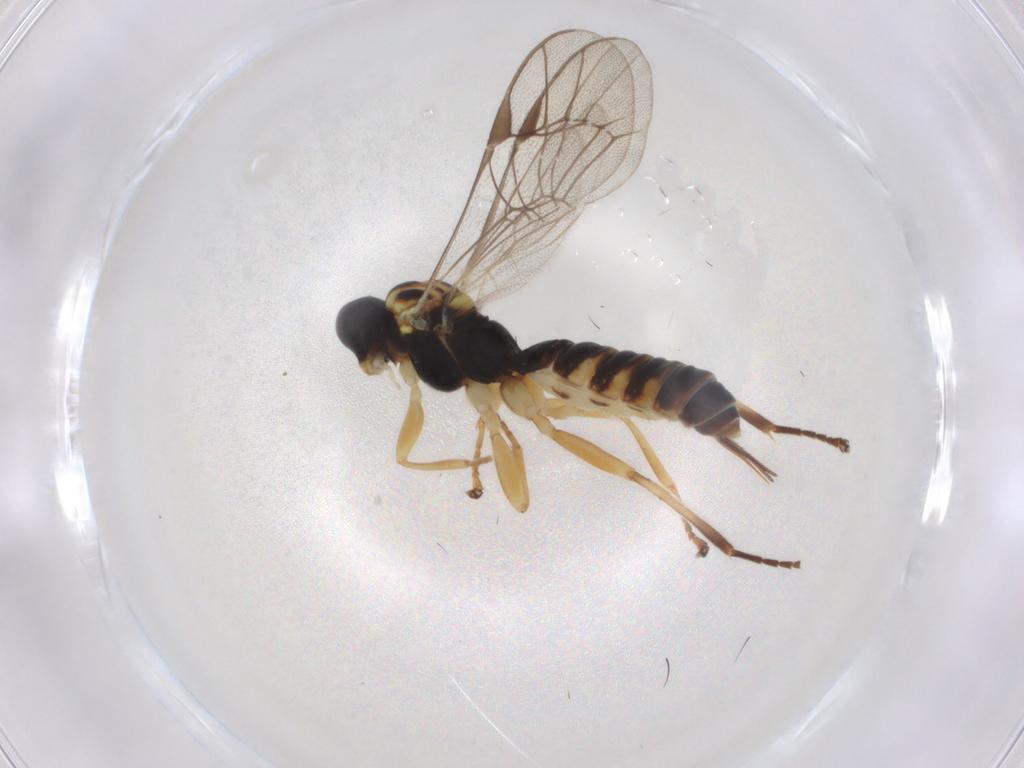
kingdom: Animalia
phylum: Arthropoda
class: Insecta
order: Hymenoptera
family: Ichneumonidae
